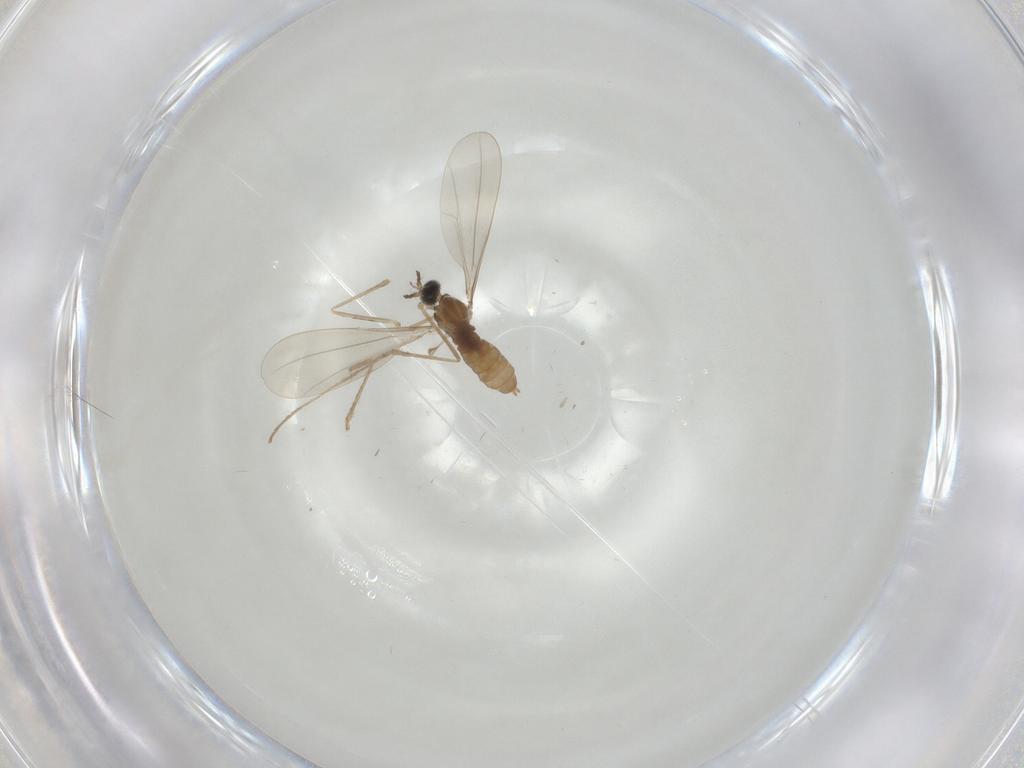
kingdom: Animalia
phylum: Arthropoda
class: Insecta
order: Diptera
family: Cecidomyiidae
